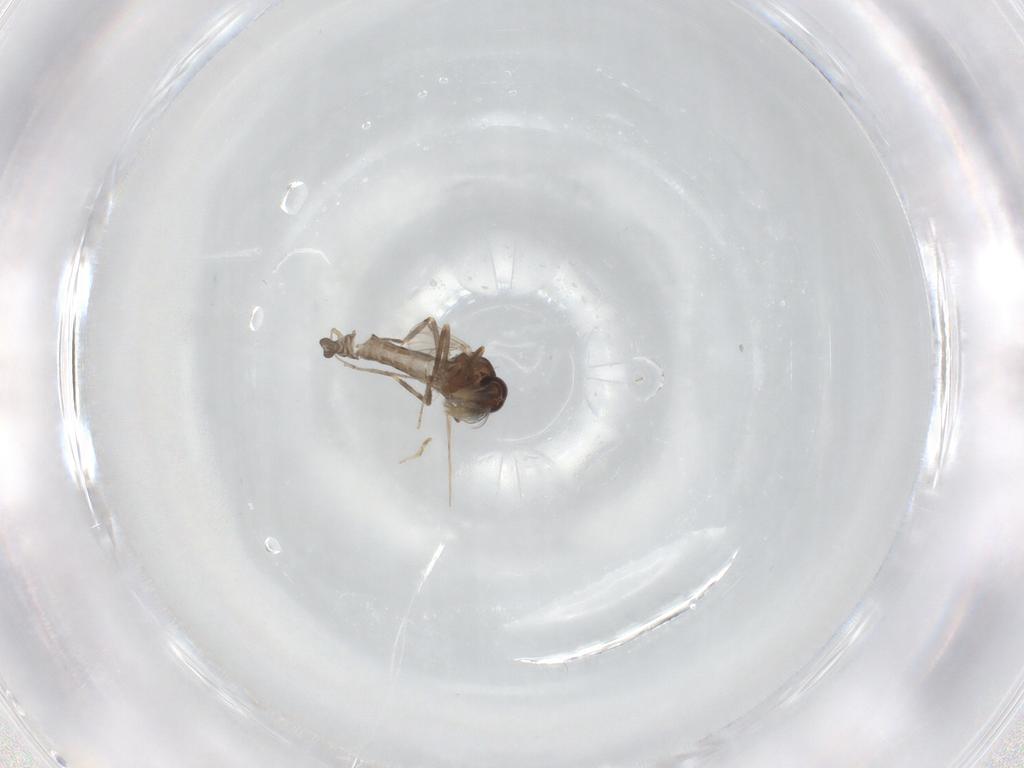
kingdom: Animalia
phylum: Arthropoda
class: Insecta
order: Diptera
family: Ceratopogonidae
